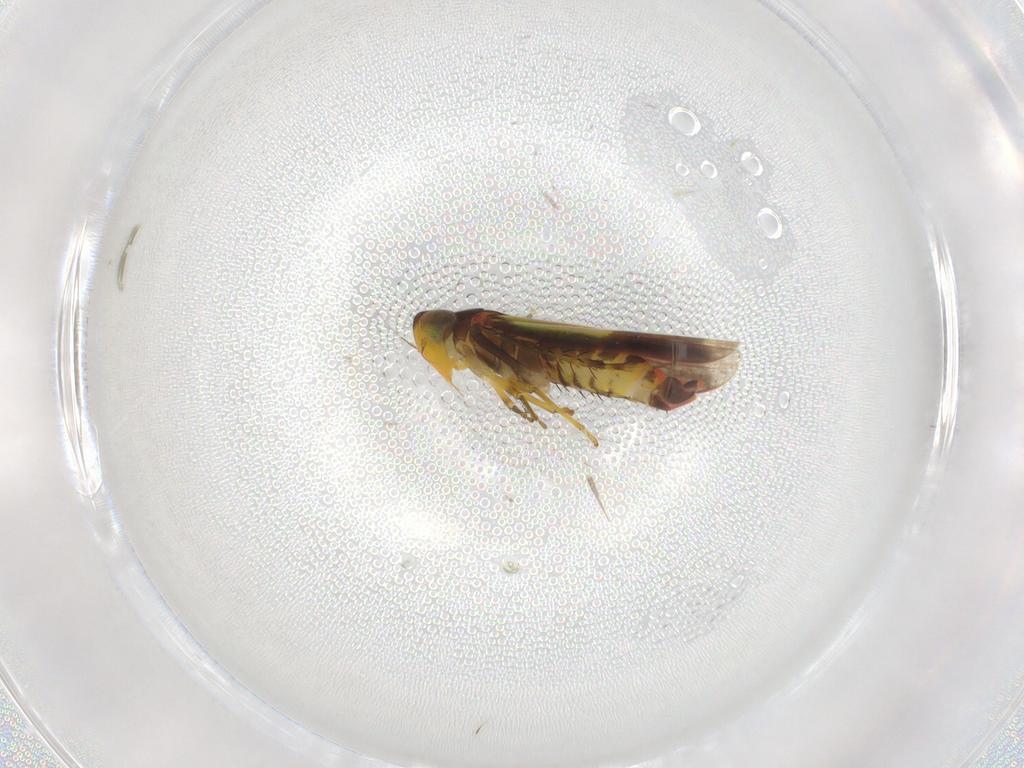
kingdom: Animalia
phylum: Arthropoda
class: Insecta
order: Hemiptera
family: Cicadellidae
